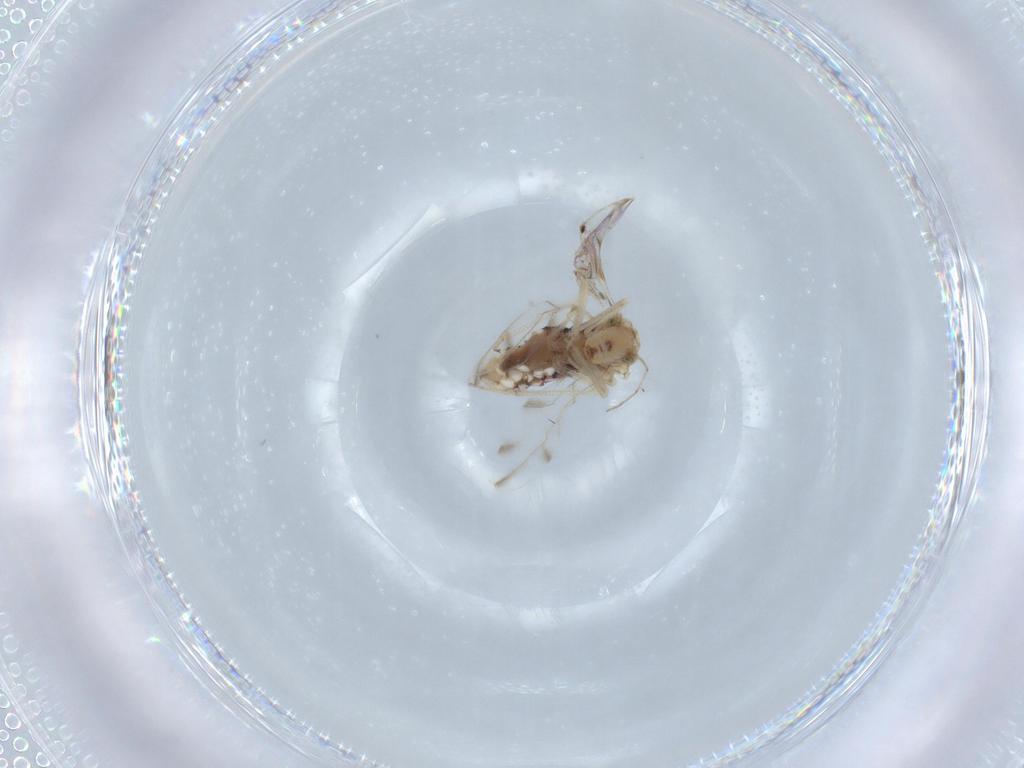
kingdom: Animalia
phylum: Arthropoda
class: Insecta
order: Psocodea
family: Ectopsocidae
